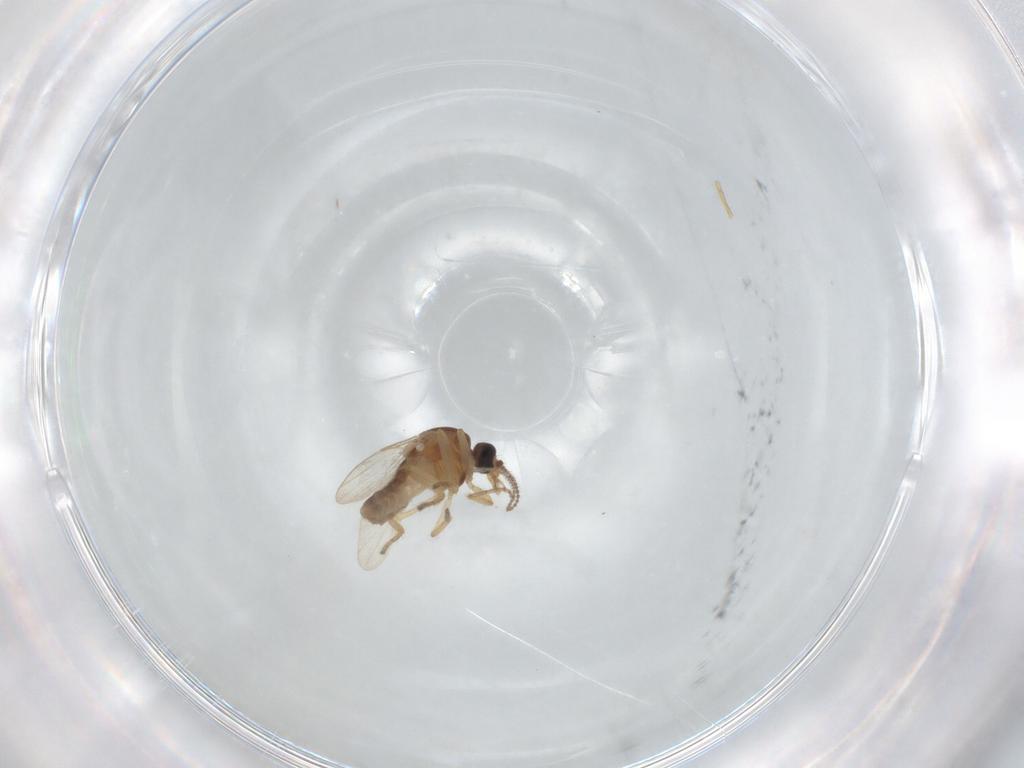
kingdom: Animalia
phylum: Arthropoda
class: Insecta
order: Diptera
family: Ceratopogonidae
